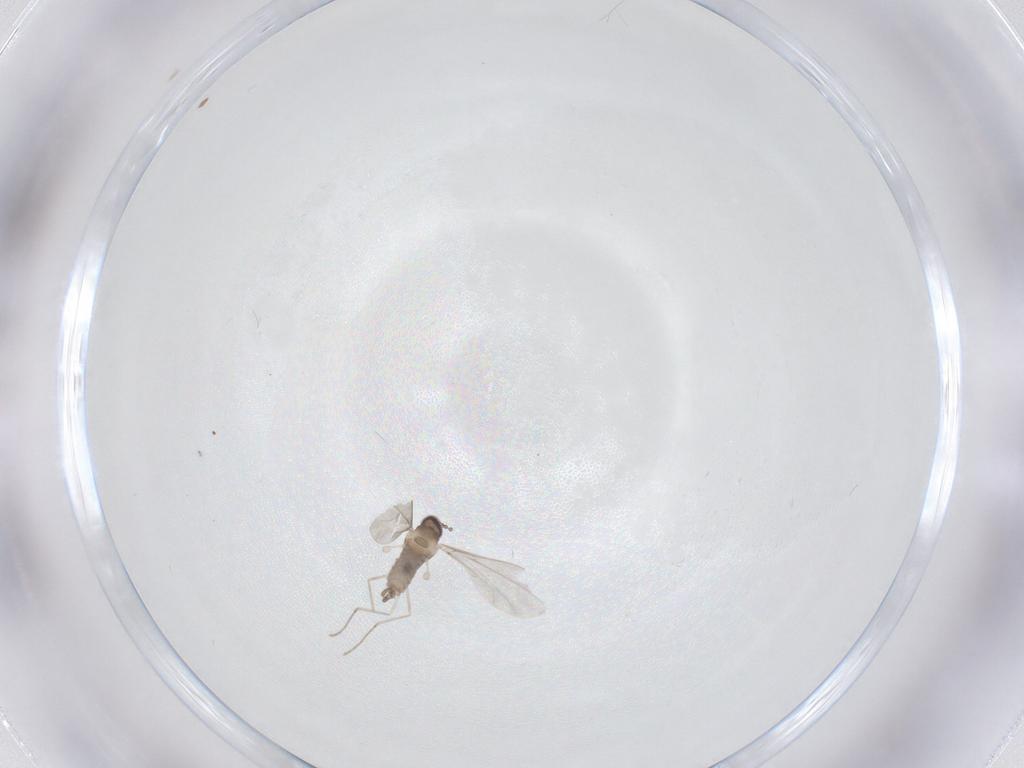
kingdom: Animalia
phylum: Arthropoda
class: Insecta
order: Diptera
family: Cecidomyiidae
